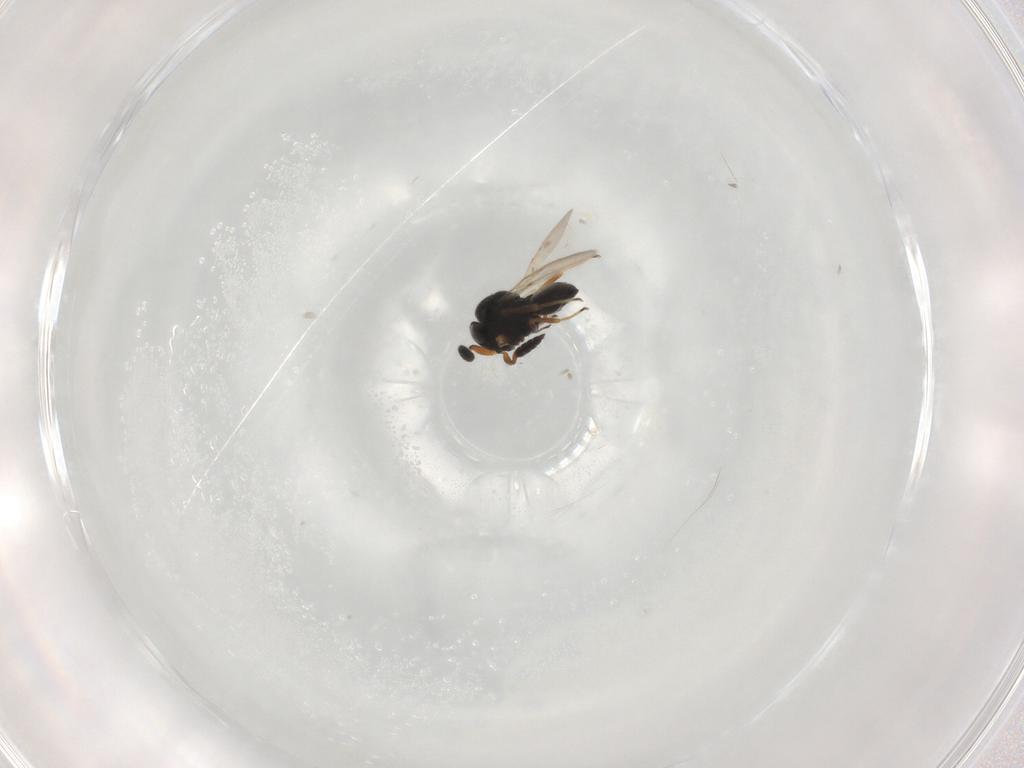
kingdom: Animalia
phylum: Arthropoda
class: Insecta
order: Hymenoptera
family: Scelionidae
